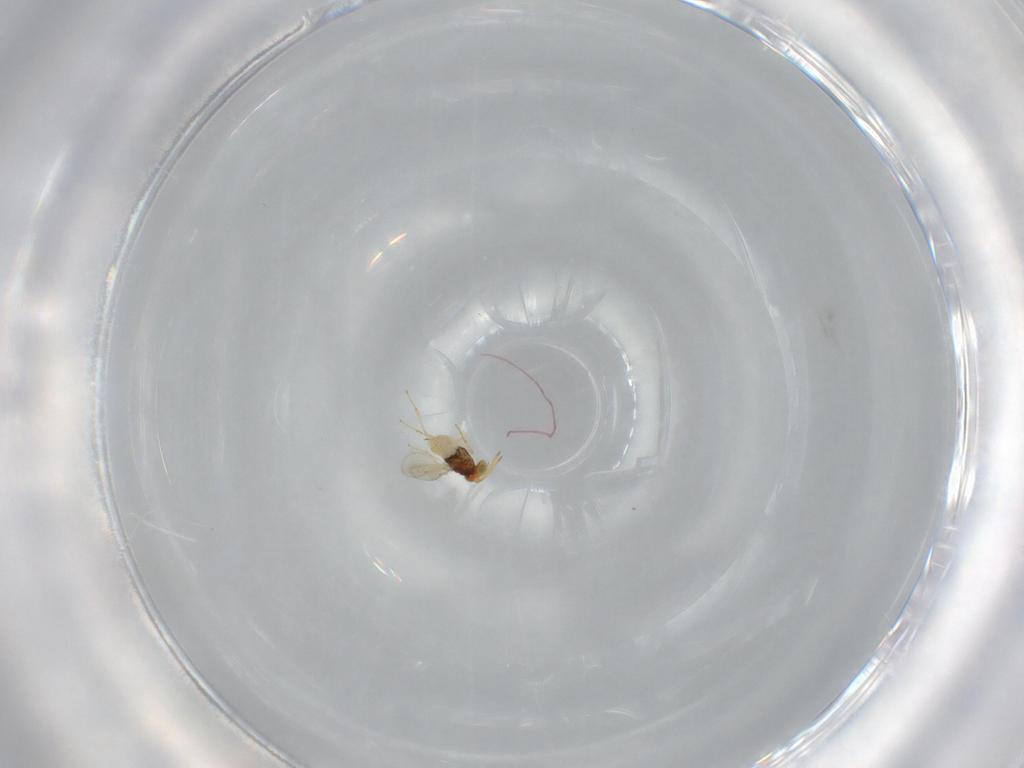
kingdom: Animalia
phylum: Arthropoda
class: Insecta
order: Hymenoptera
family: Aphelinidae
